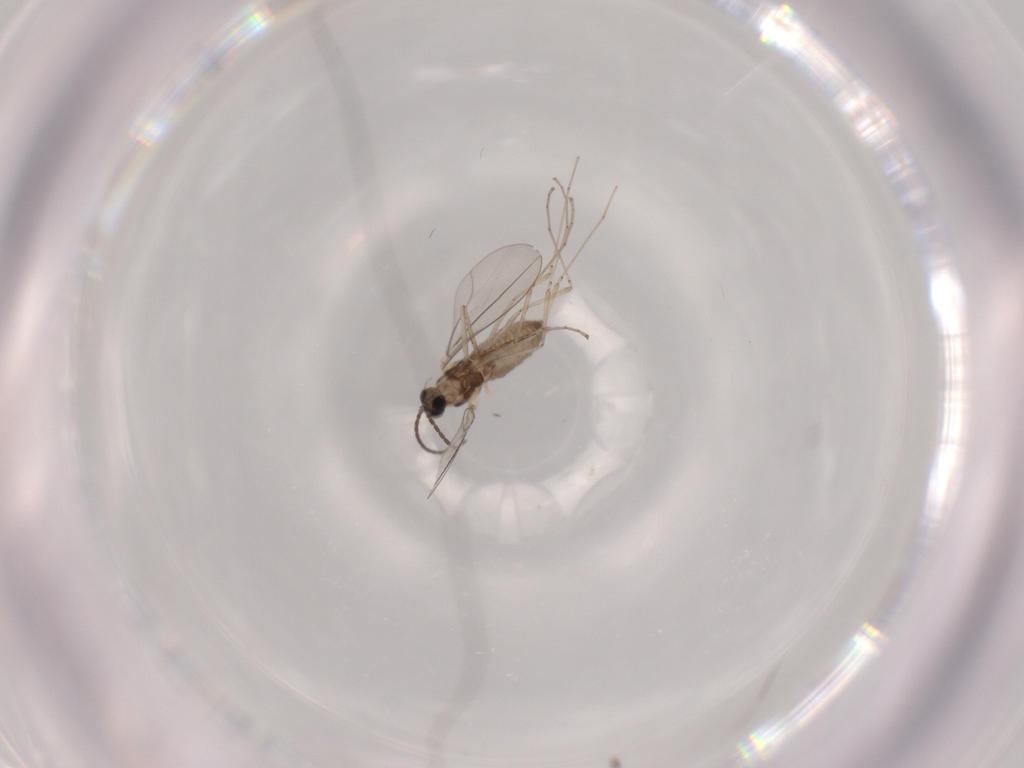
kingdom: Animalia
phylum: Arthropoda
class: Insecta
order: Diptera
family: Cecidomyiidae
